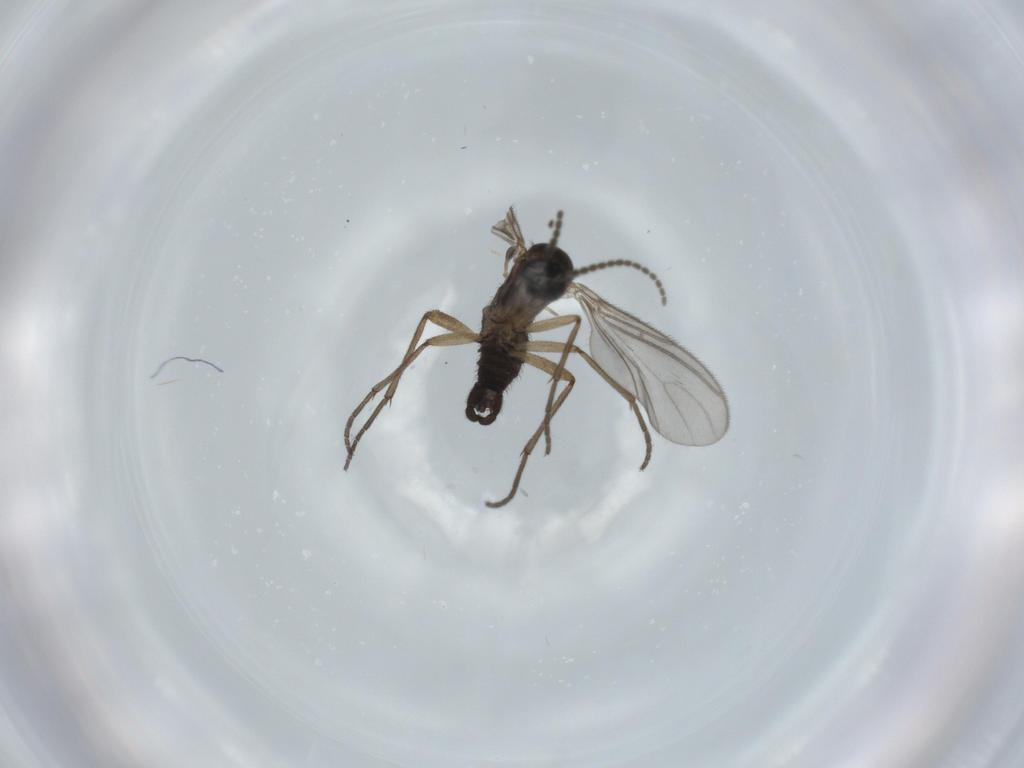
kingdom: Animalia
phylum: Arthropoda
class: Insecta
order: Diptera
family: Sciaridae
